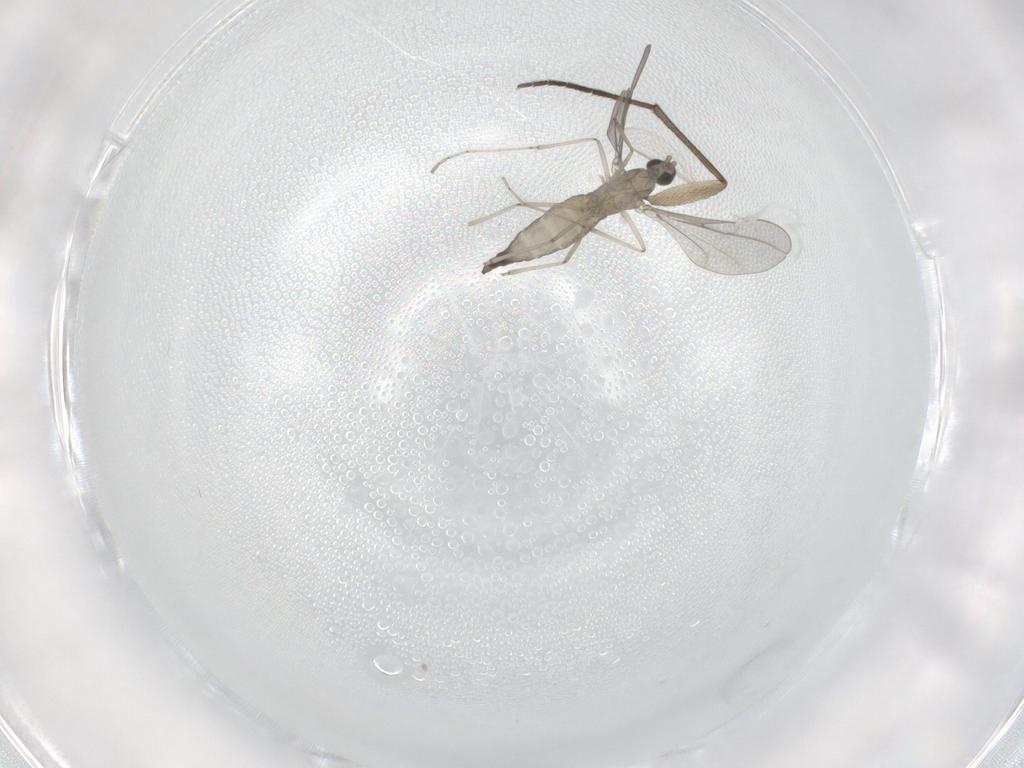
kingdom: Animalia
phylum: Arthropoda
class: Insecta
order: Diptera
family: Cecidomyiidae
